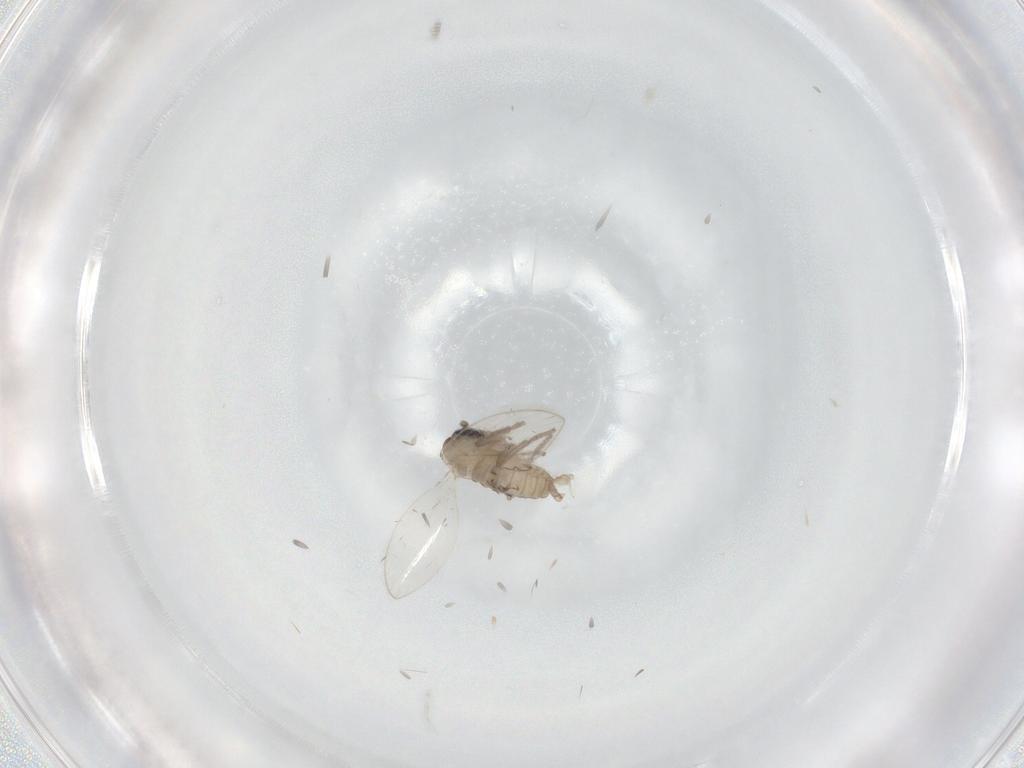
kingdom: Animalia
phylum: Arthropoda
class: Insecta
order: Diptera
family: Cecidomyiidae
